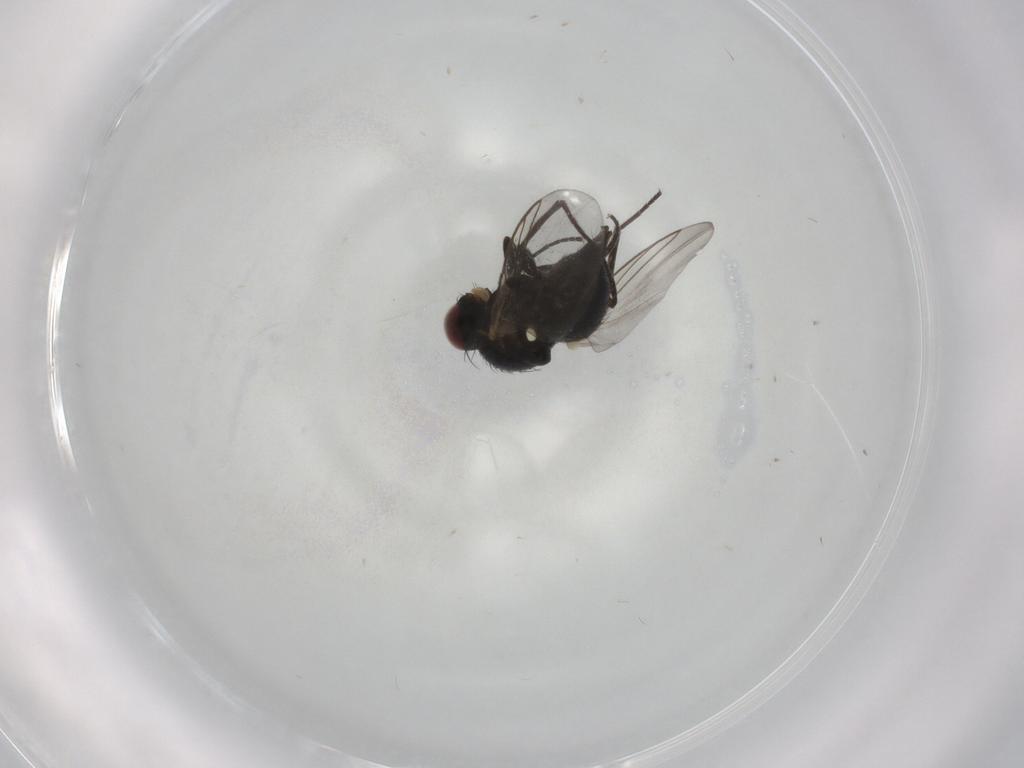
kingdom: Animalia
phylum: Arthropoda
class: Insecta
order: Diptera
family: Ceratopogonidae
